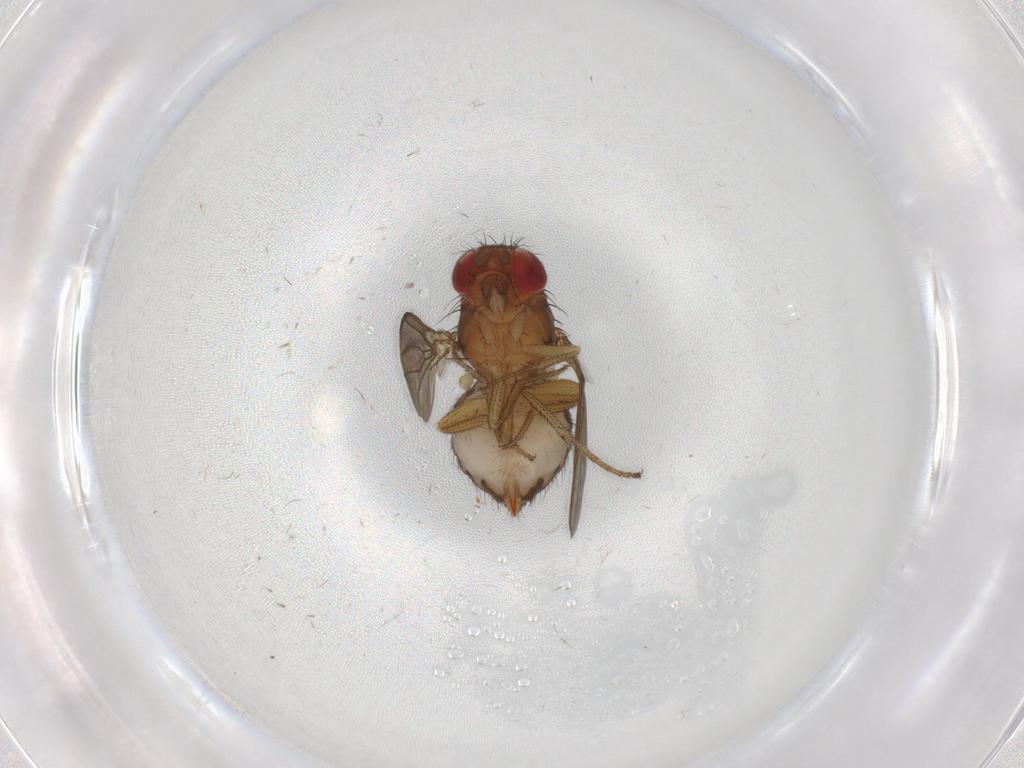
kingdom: Animalia
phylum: Arthropoda
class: Insecta
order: Diptera
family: Drosophilidae
